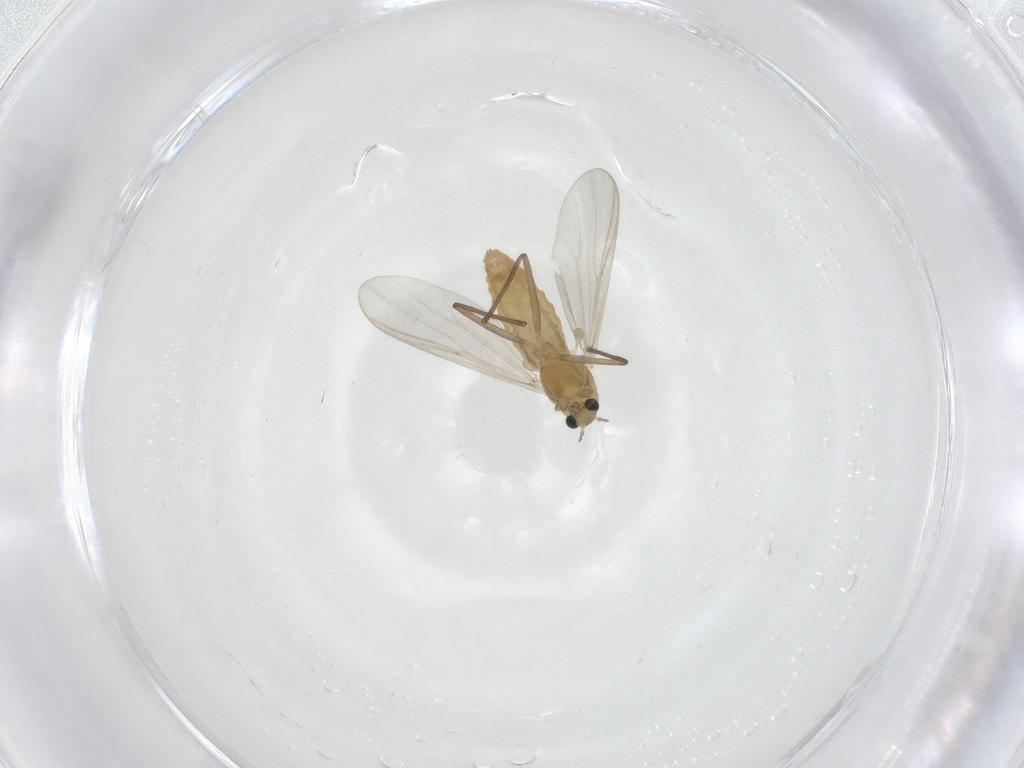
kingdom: Animalia
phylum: Arthropoda
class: Insecta
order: Diptera
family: Chironomidae
